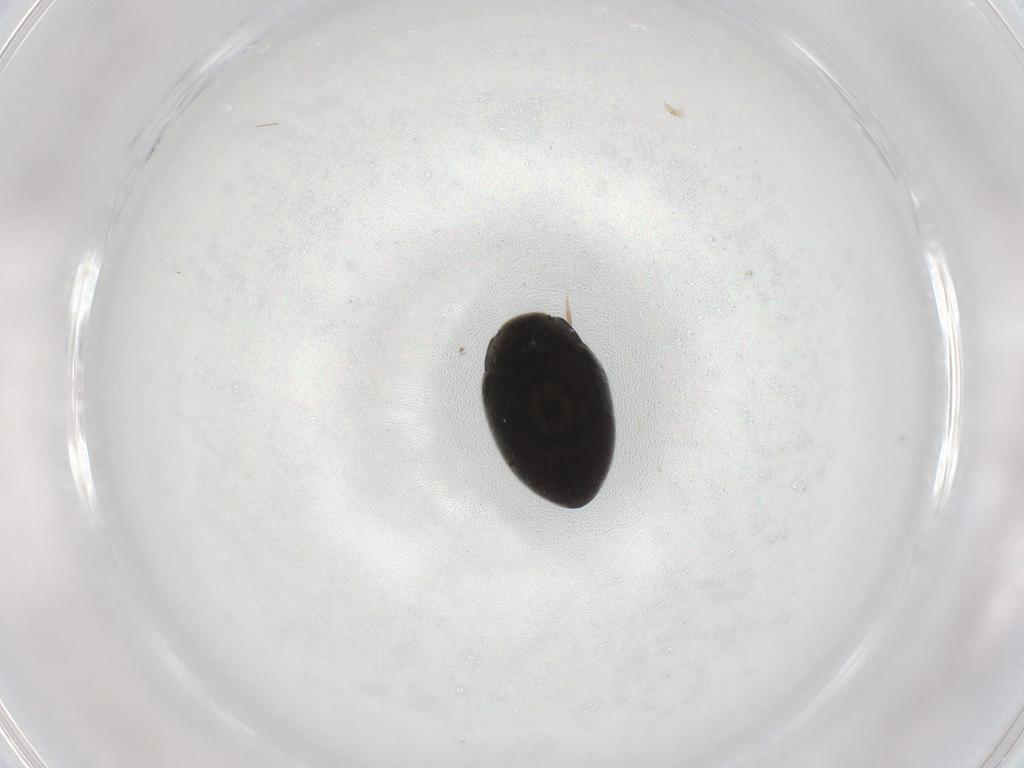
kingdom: Animalia
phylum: Arthropoda
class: Insecta
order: Coleoptera
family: Limnichidae
